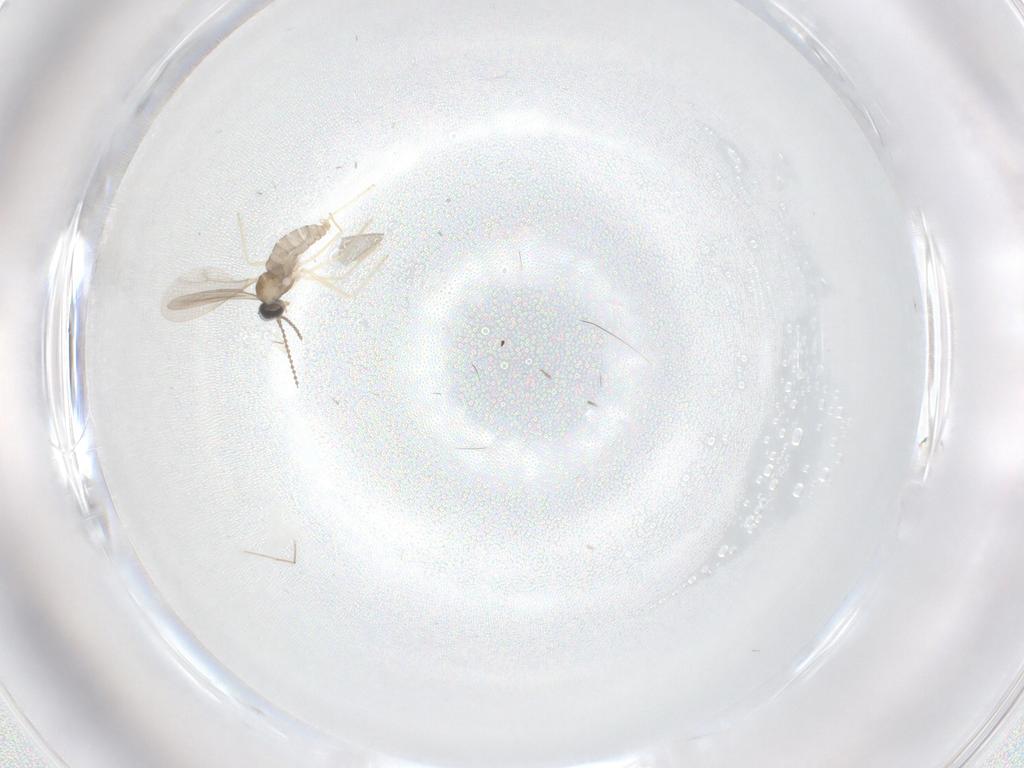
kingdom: Animalia
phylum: Arthropoda
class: Insecta
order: Diptera
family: Cecidomyiidae
